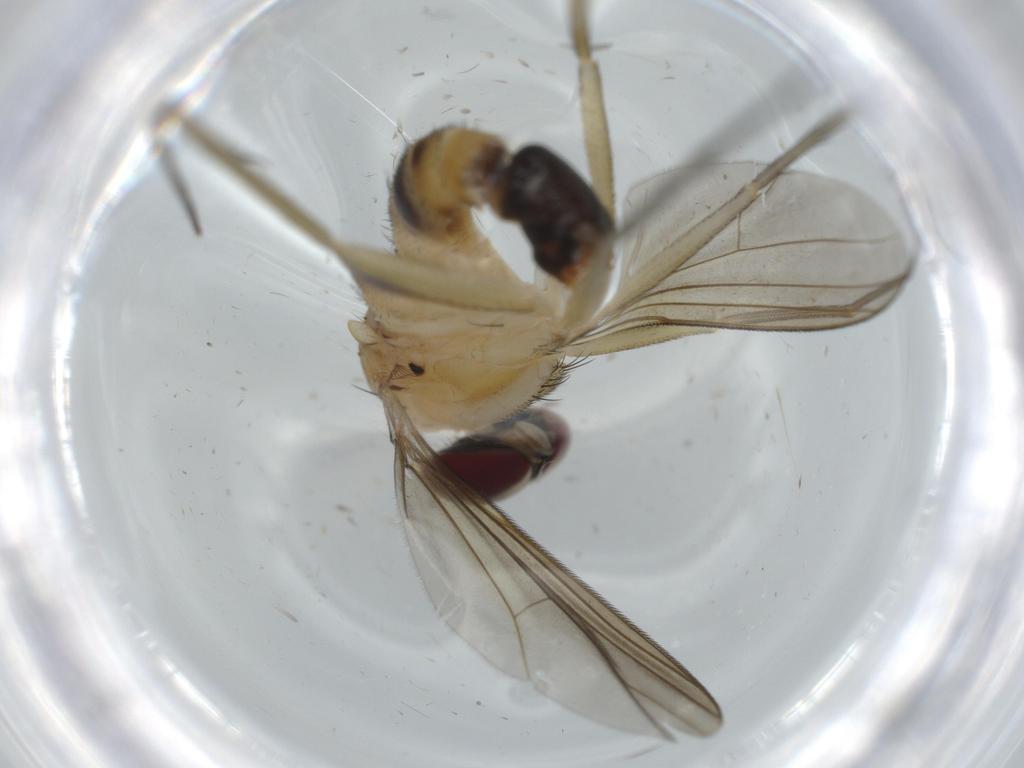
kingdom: Animalia
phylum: Arthropoda
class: Insecta
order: Diptera
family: Dolichopodidae
